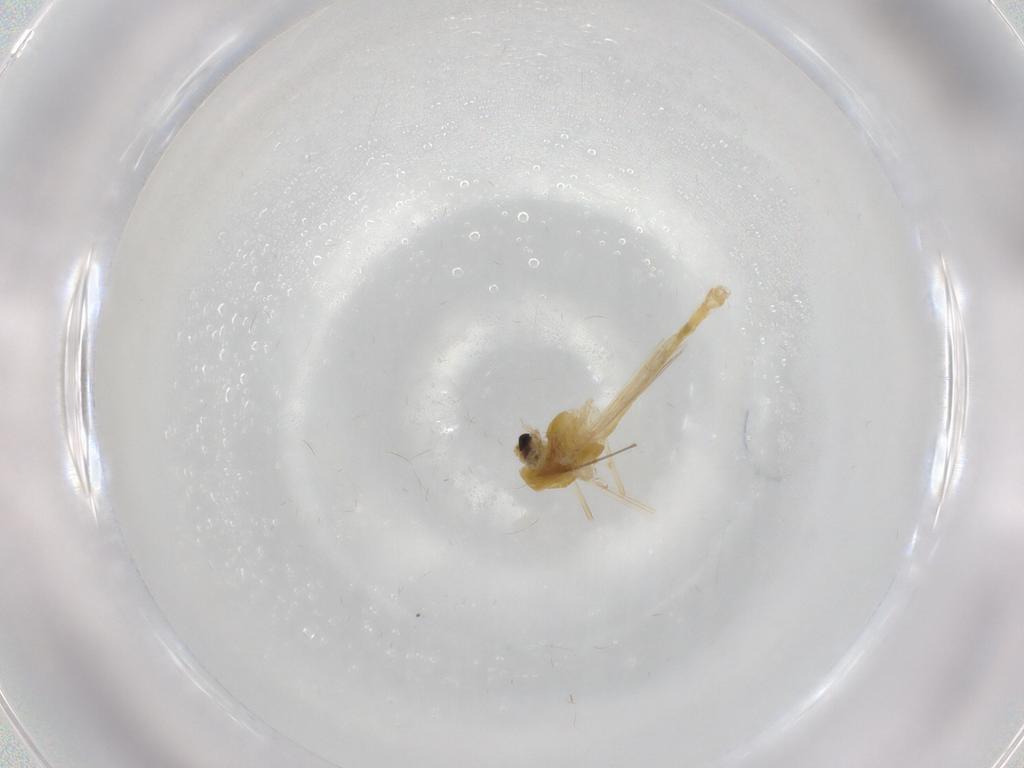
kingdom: Animalia
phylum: Arthropoda
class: Insecta
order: Diptera
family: Chironomidae
